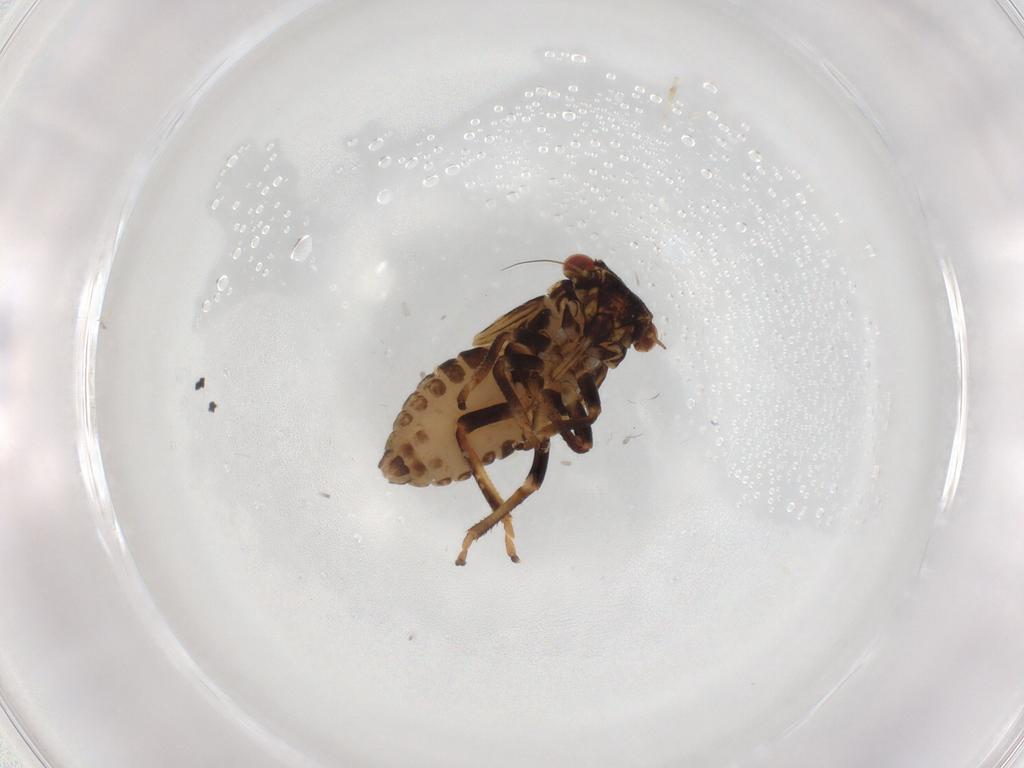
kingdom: Animalia
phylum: Arthropoda
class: Insecta
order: Hemiptera
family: Cicadellidae
